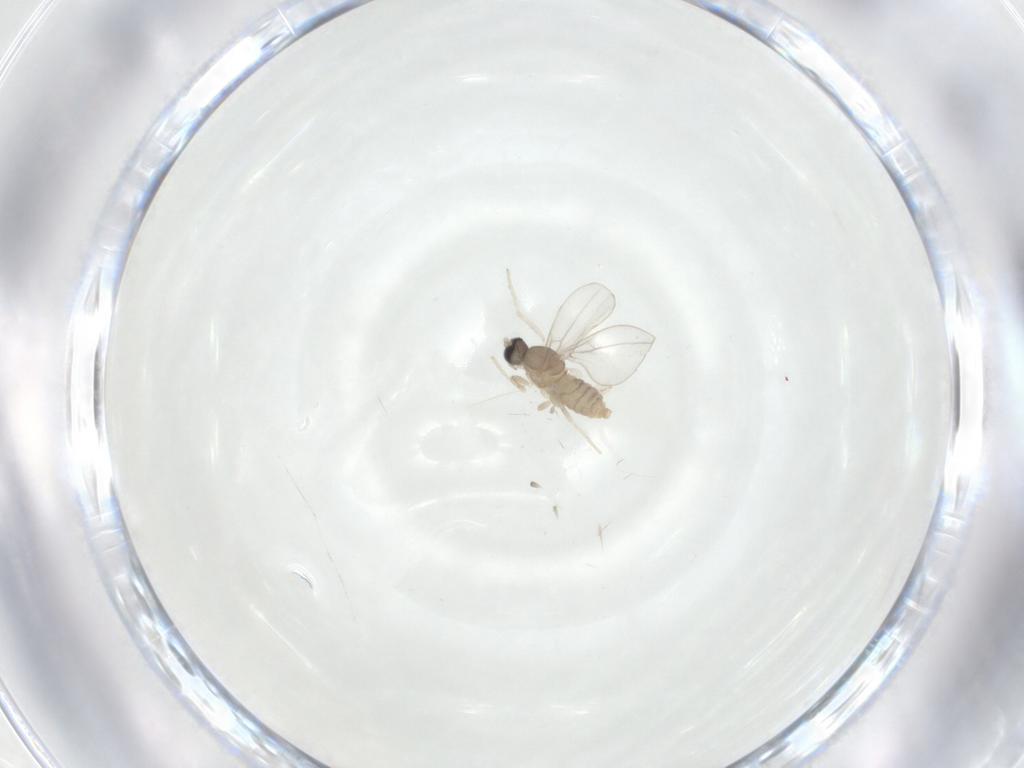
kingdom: Animalia
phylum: Arthropoda
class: Insecta
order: Diptera
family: Cecidomyiidae
